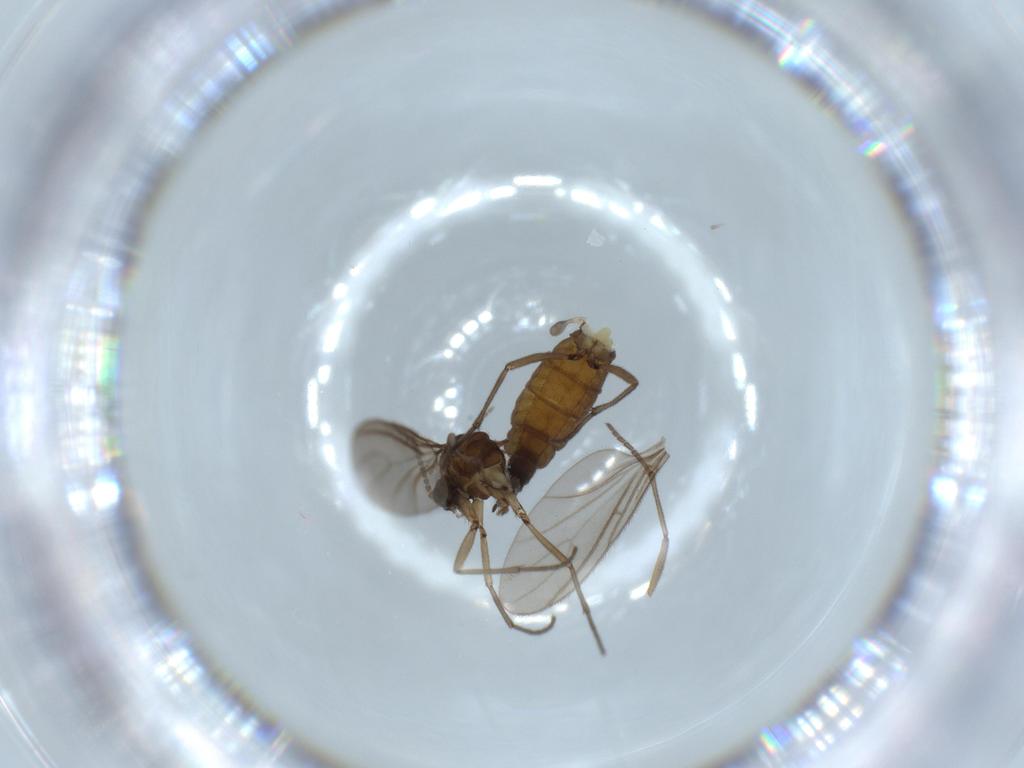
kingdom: Animalia
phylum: Arthropoda
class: Insecta
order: Diptera
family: Sciaridae
